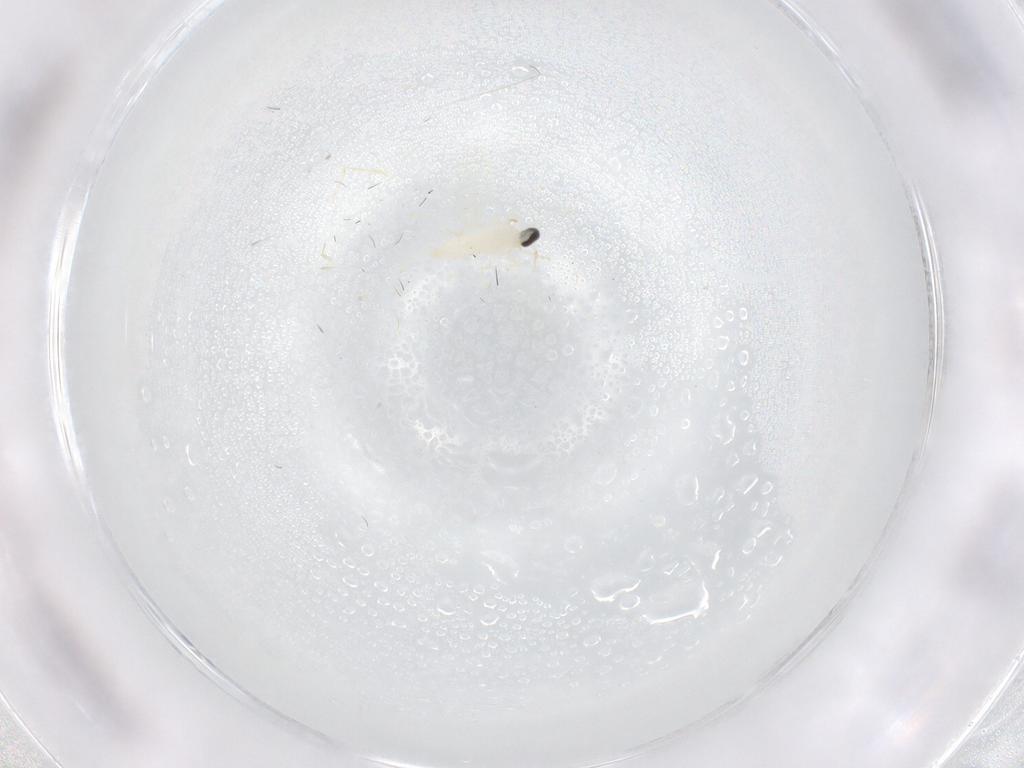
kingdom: Animalia
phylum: Arthropoda
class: Insecta
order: Diptera
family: Cecidomyiidae
